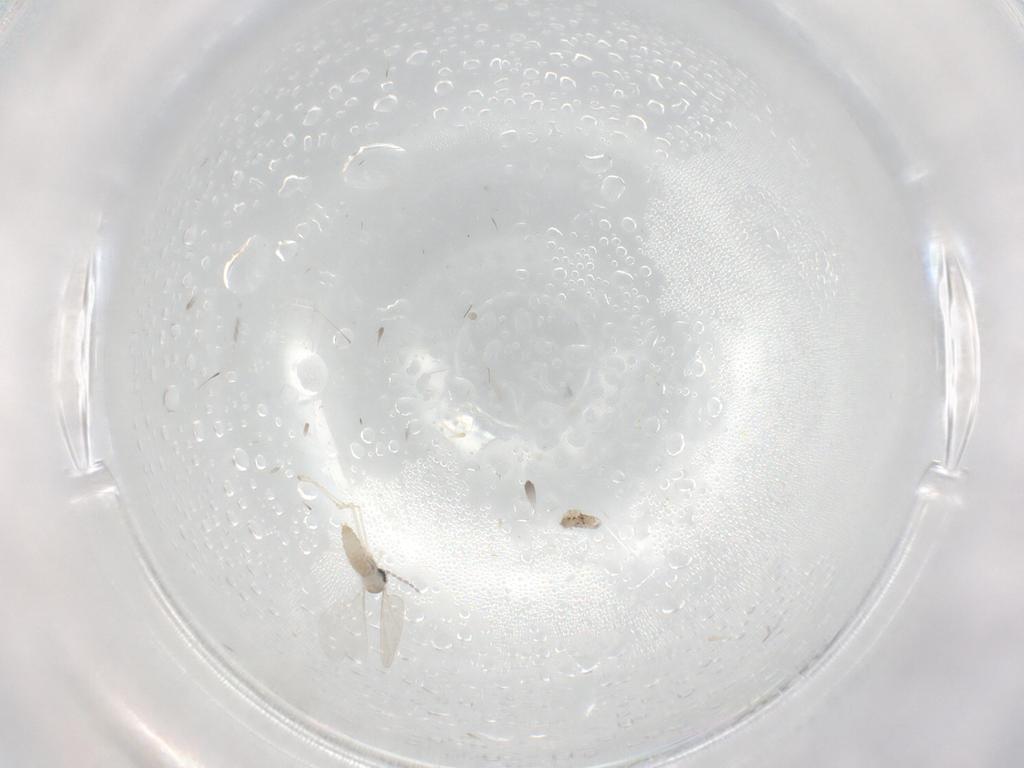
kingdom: Animalia
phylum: Arthropoda
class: Insecta
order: Diptera
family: Cecidomyiidae
